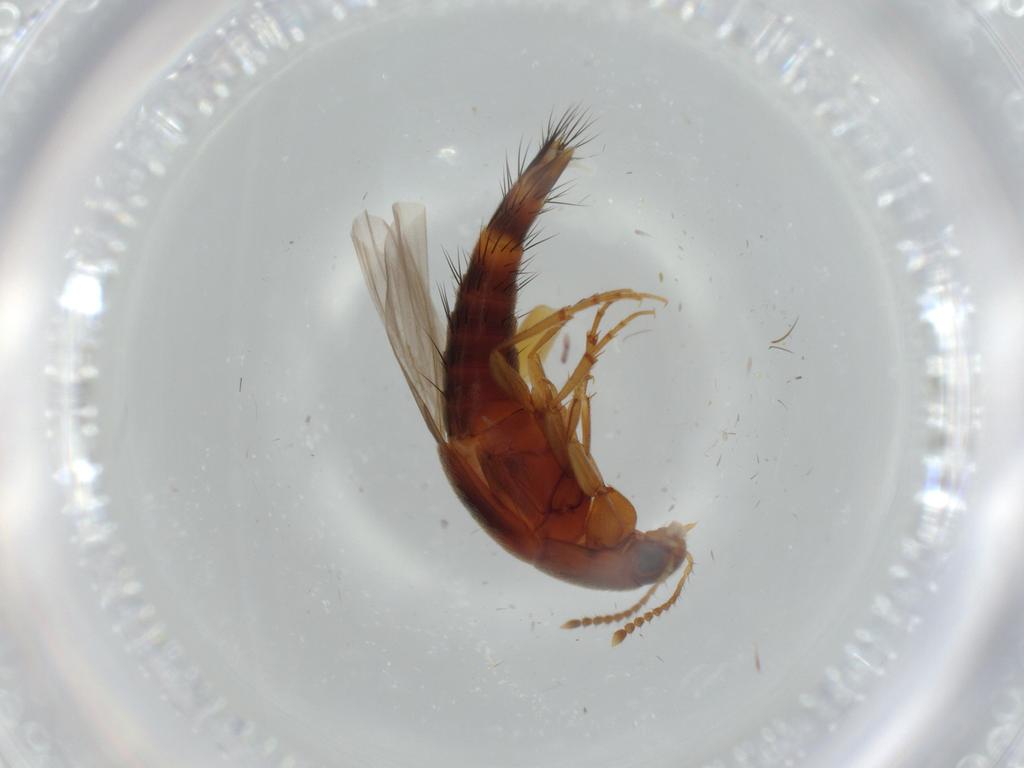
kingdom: Animalia
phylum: Arthropoda
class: Insecta
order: Coleoptera
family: Staphylinidae
